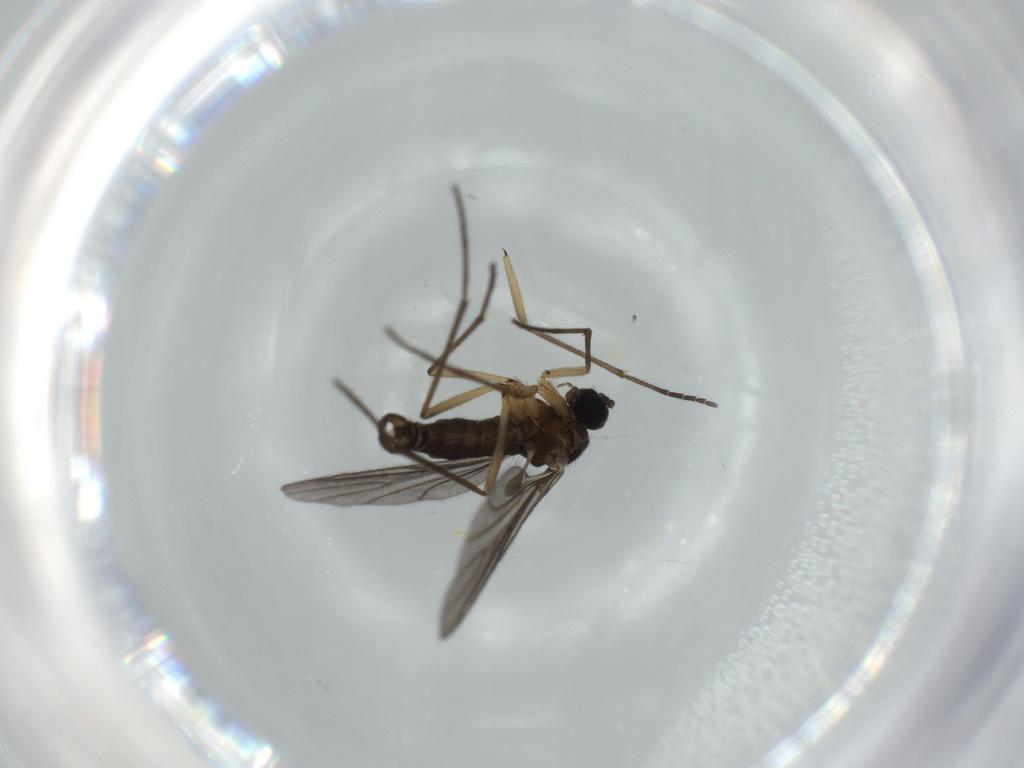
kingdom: Animalia
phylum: Arthropoda
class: Insecta
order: Diptera
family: Sciaridae
